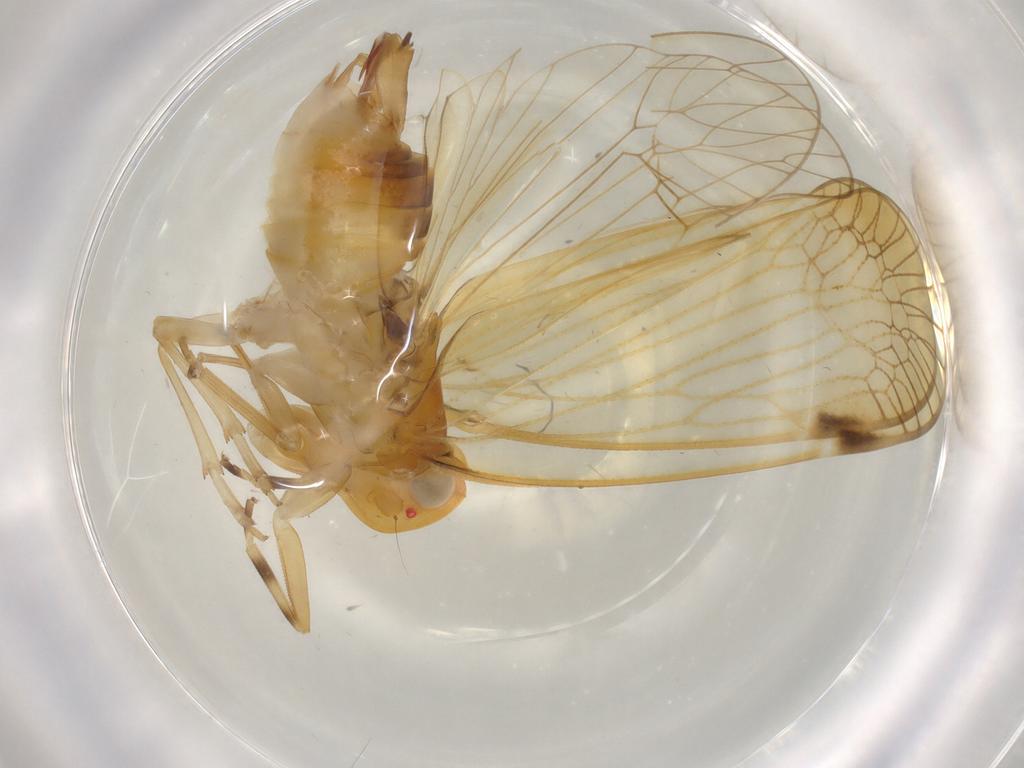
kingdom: Animalia
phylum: Arthropoda
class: Insecta
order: Hemiptera
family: Cixiidae
